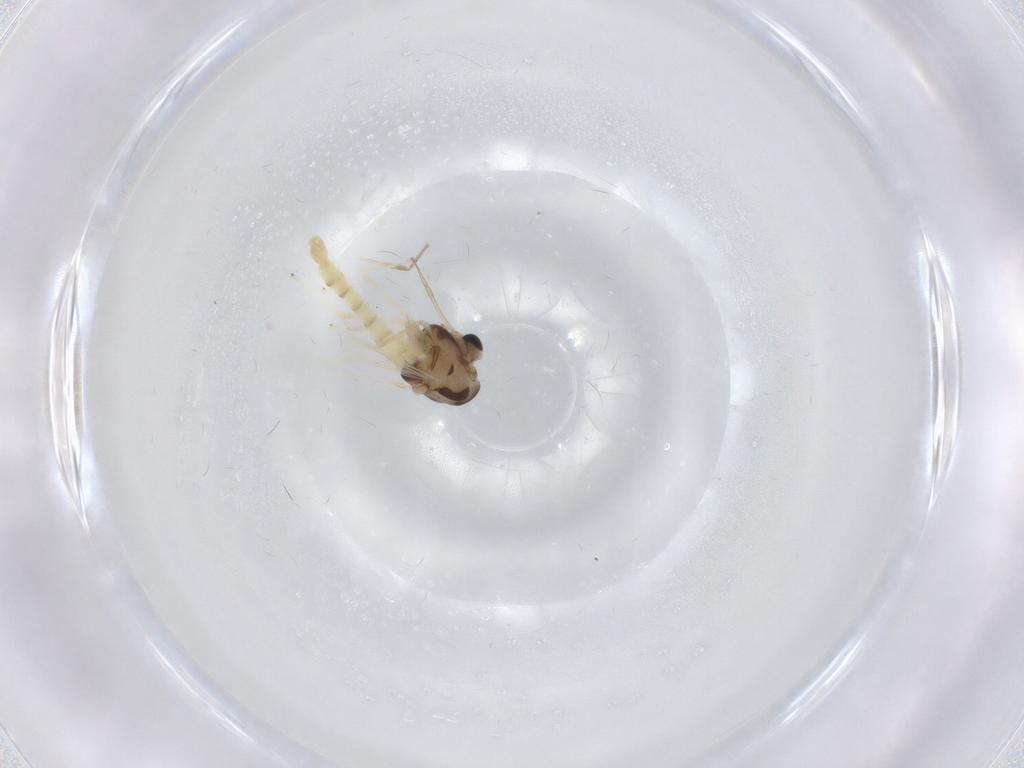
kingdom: Animalia
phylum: Arthropoda
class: Insecta
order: Diptera
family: Chironomidae
